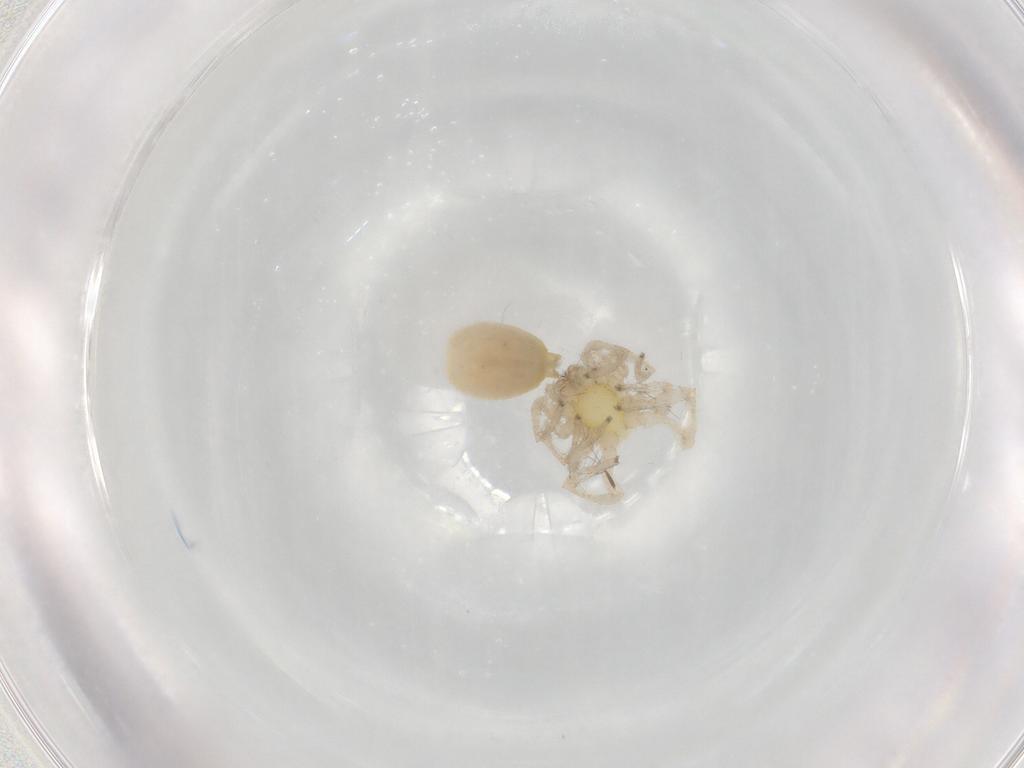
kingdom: Animalia
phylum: Arthropoda
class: Arachnida
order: Araneae
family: Clubionidae
